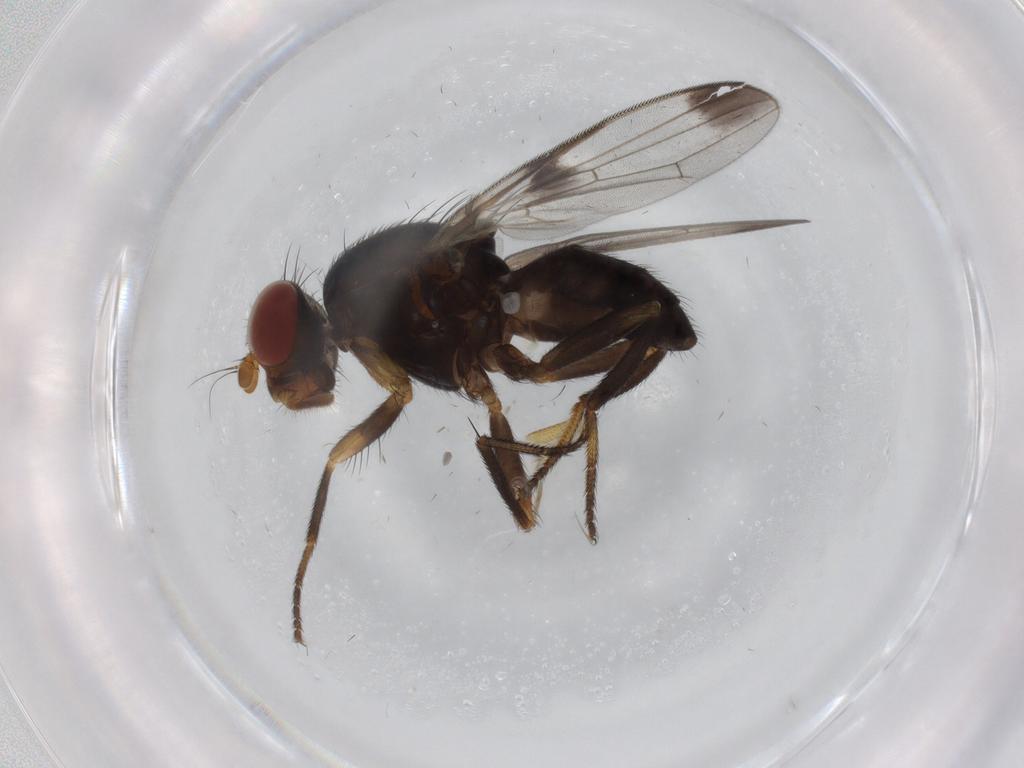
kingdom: Animalia
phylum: Arthropoda
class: Insecta
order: Diptera
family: Ulidiidae
